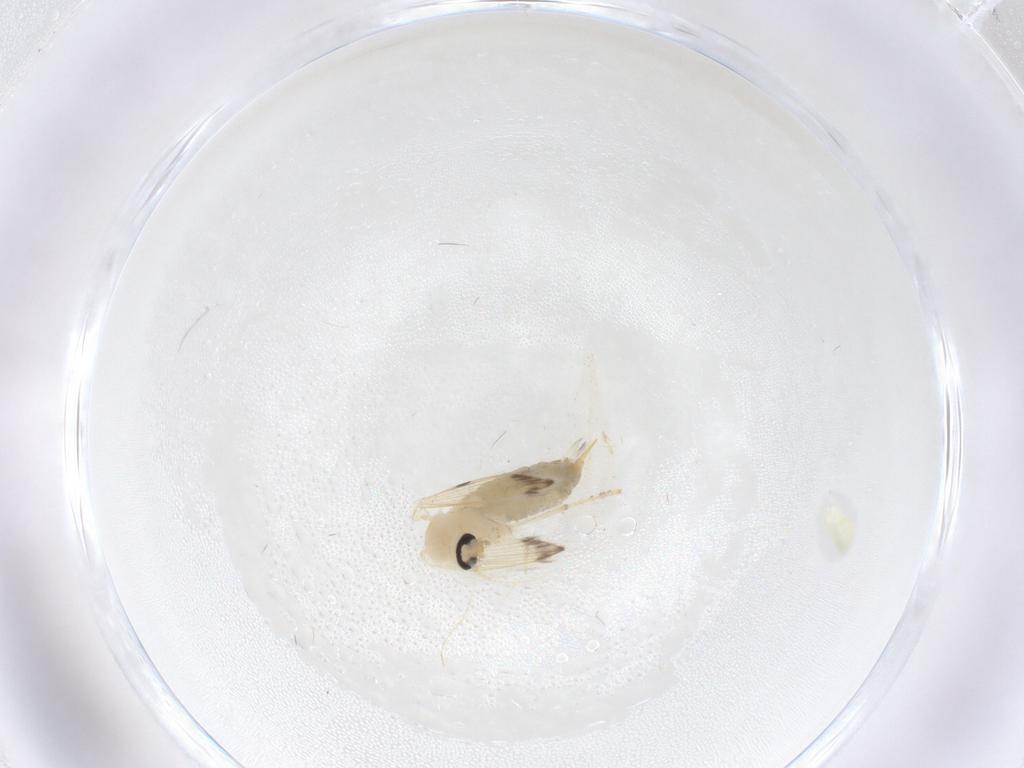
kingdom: Animalia
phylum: Arthropoda
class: Insecta
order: Diptera
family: Psychodidae
